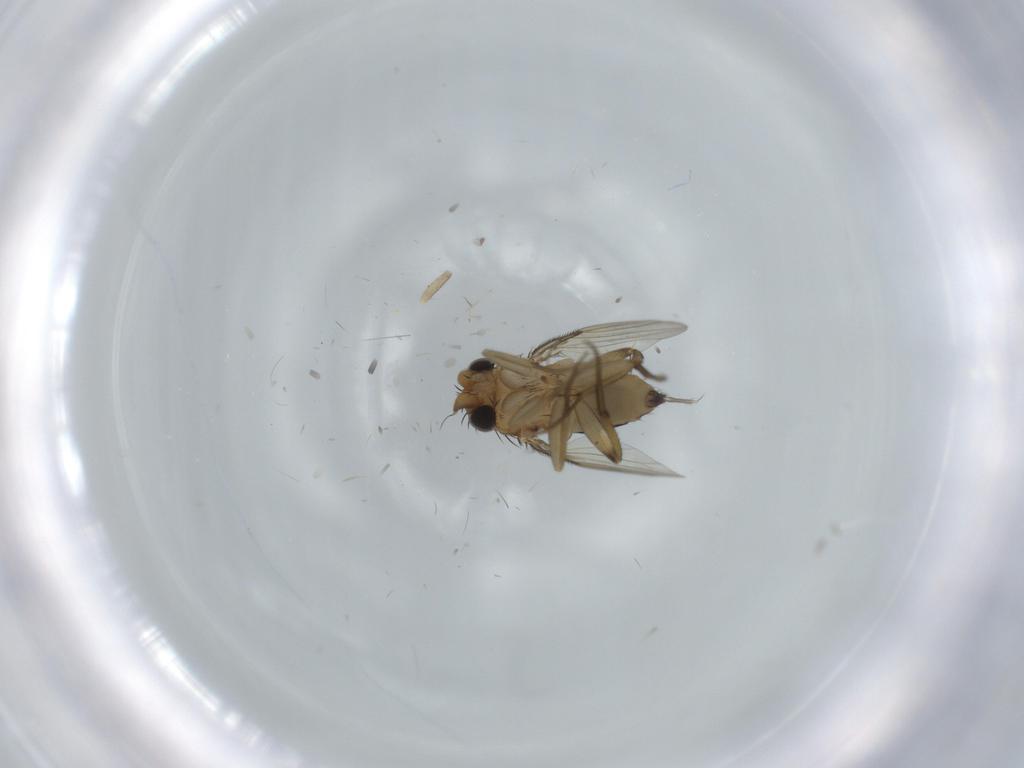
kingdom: Animalia
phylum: Arthropoda
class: Insecta
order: Diptera
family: Cecidomyiidae
